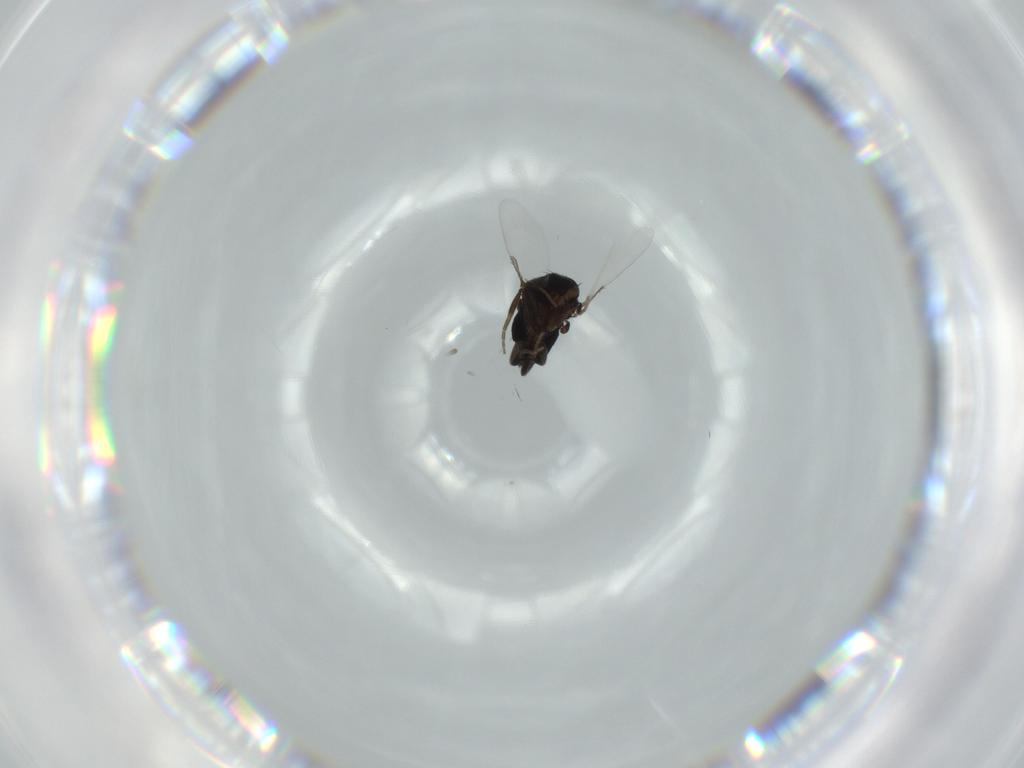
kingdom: Animalia
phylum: Arthropoda
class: Insecta
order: Diptera
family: Phoridae
